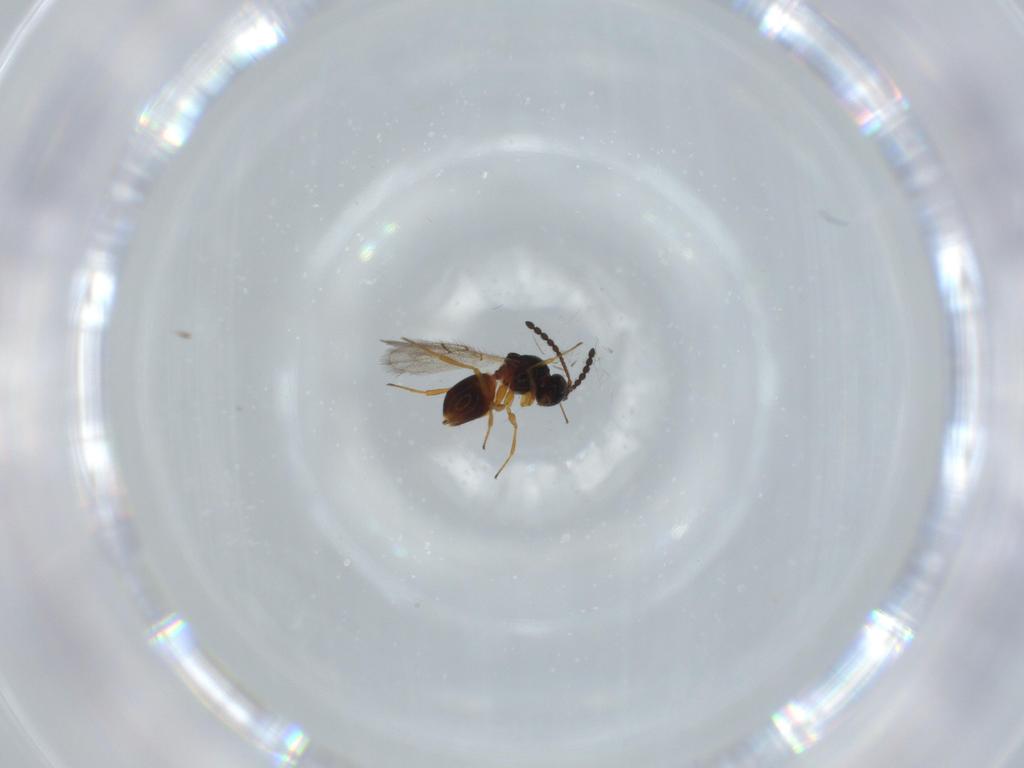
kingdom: Animalia
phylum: Arthropoda
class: Insecta
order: Hymenoptera
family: Figitidae
